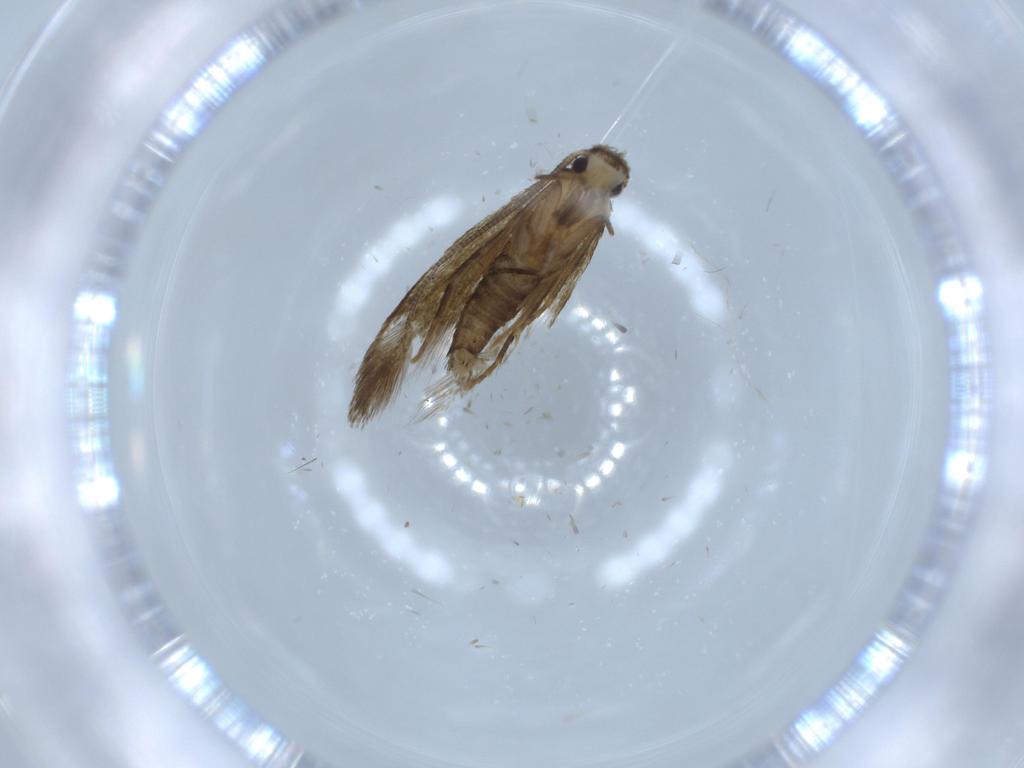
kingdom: Animalia
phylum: Arthropoda
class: Insecta
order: Lepidoptera
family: Tineidae
